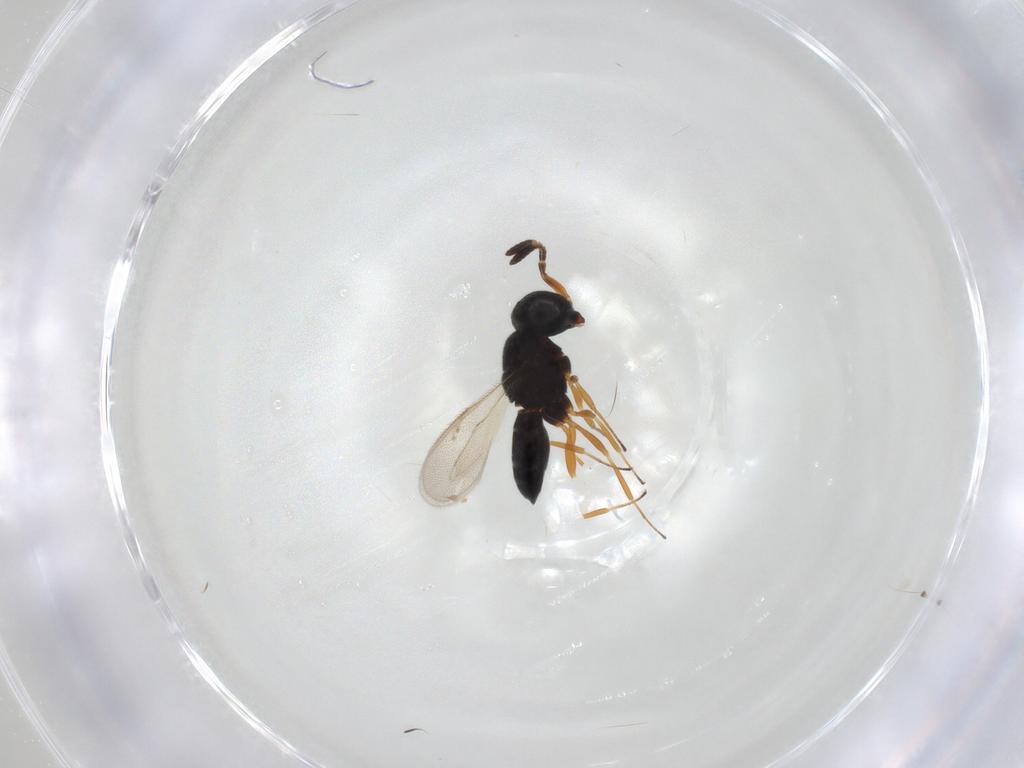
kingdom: Animalia
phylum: Arthropoda
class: Insecta
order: Hymenoptera
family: Scelionidae
